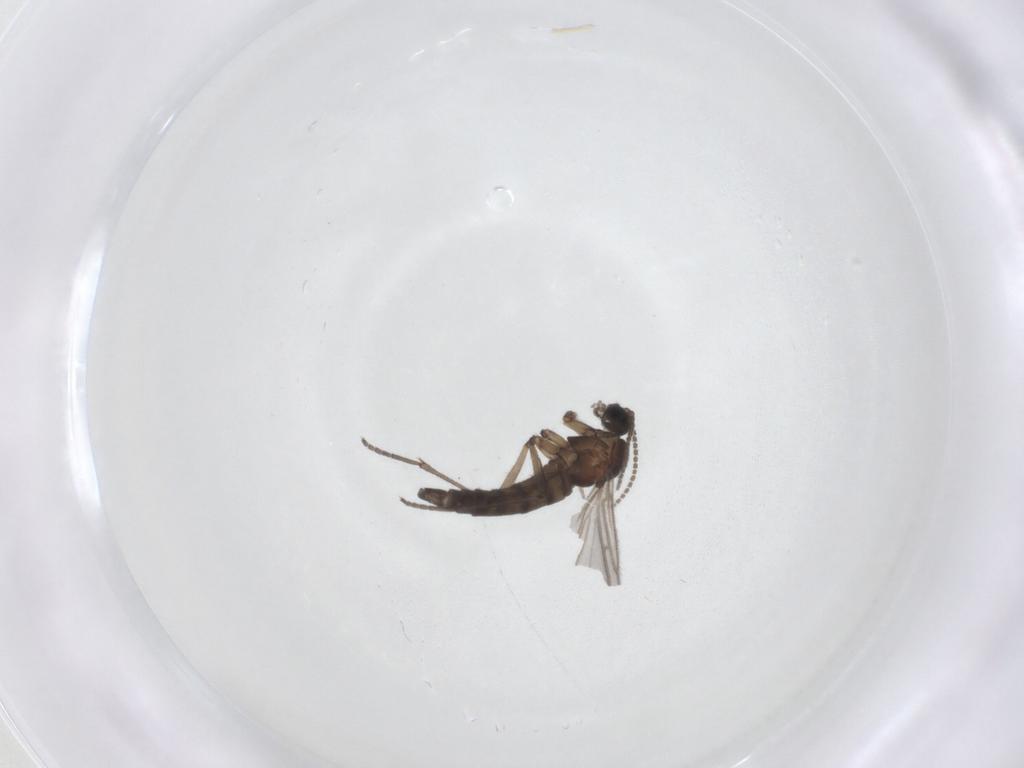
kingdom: Animalia
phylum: Arthropoda
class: Insecta
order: Diptera
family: Sciaridae
